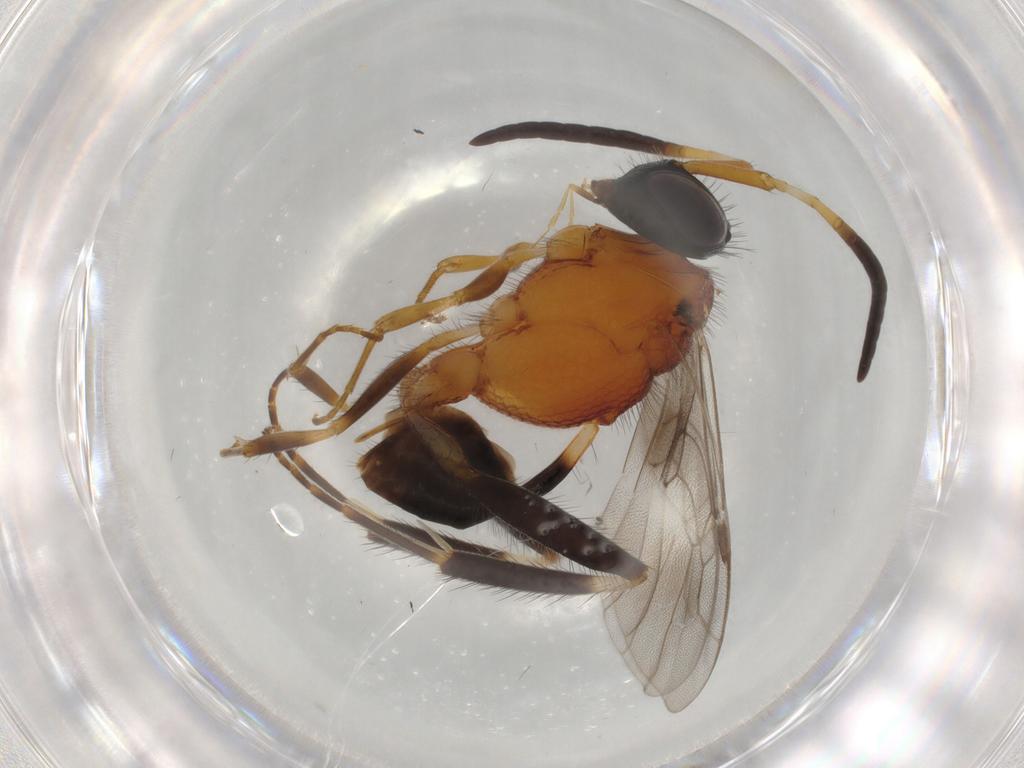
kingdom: Animalia
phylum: Arthropoda
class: Insecta
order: Hymenoptera
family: Evaniidae
